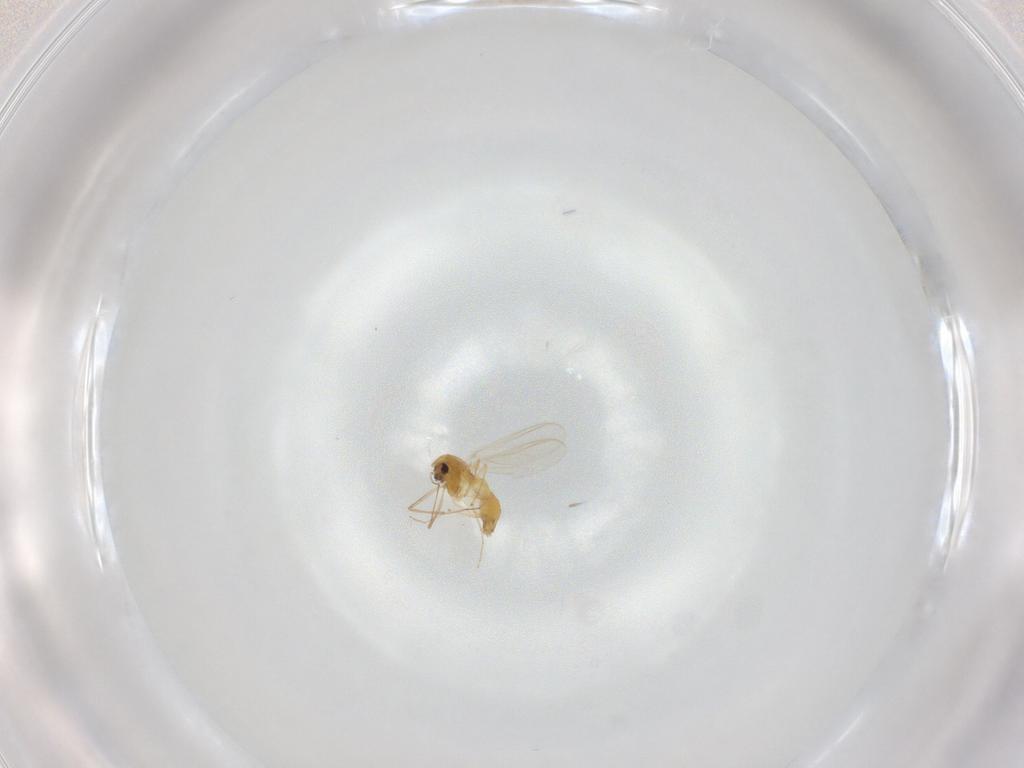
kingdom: Animalia
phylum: Arthropoda
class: Insecta
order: Diptera
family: Chironomidae
